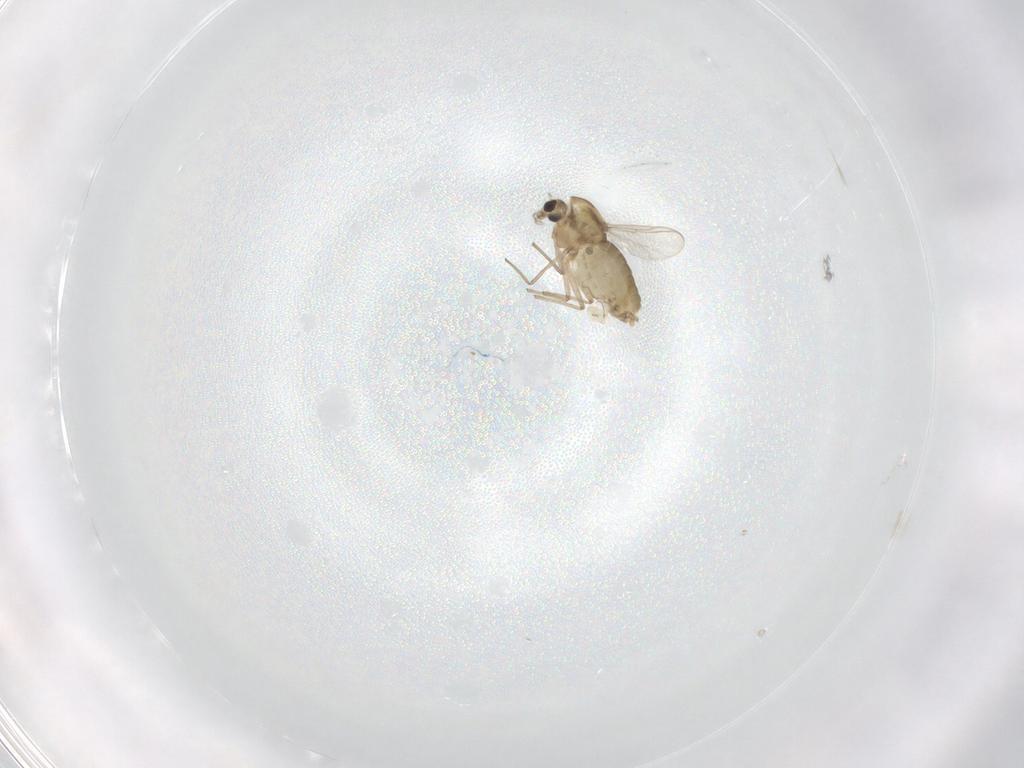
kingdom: Animalia
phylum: Arthropoda
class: Insecta
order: Diptera
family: Chironomidae
